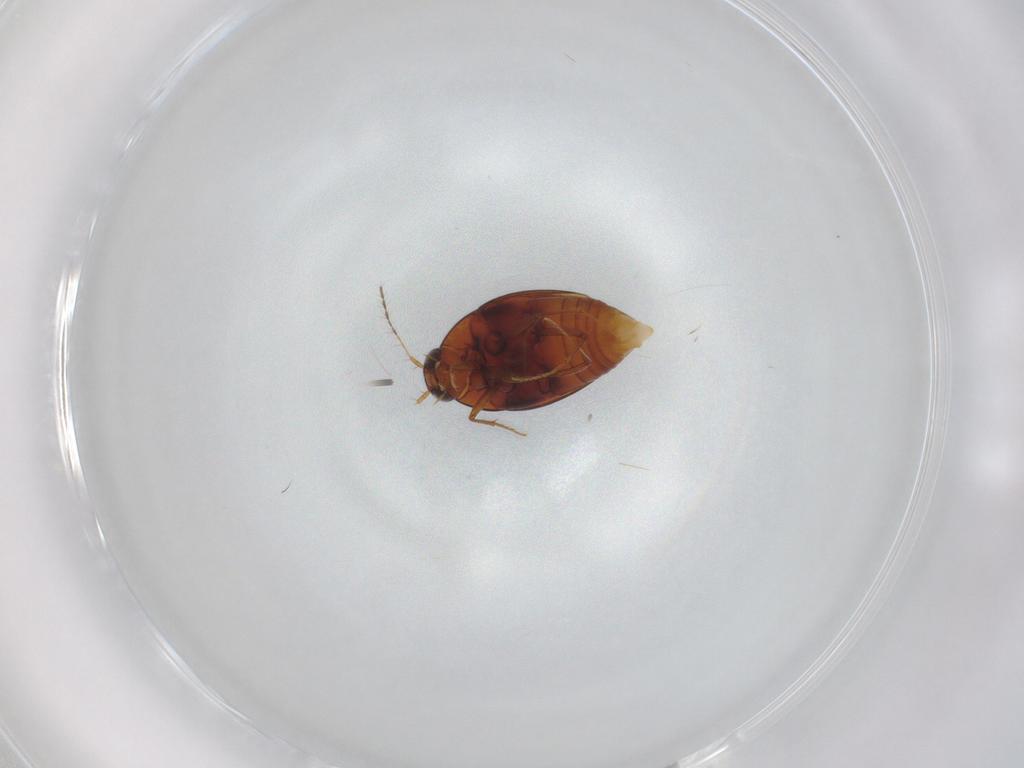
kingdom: Animalia
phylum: Arthropoda
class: Insecta
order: Coleoptera
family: Staphylinidae
